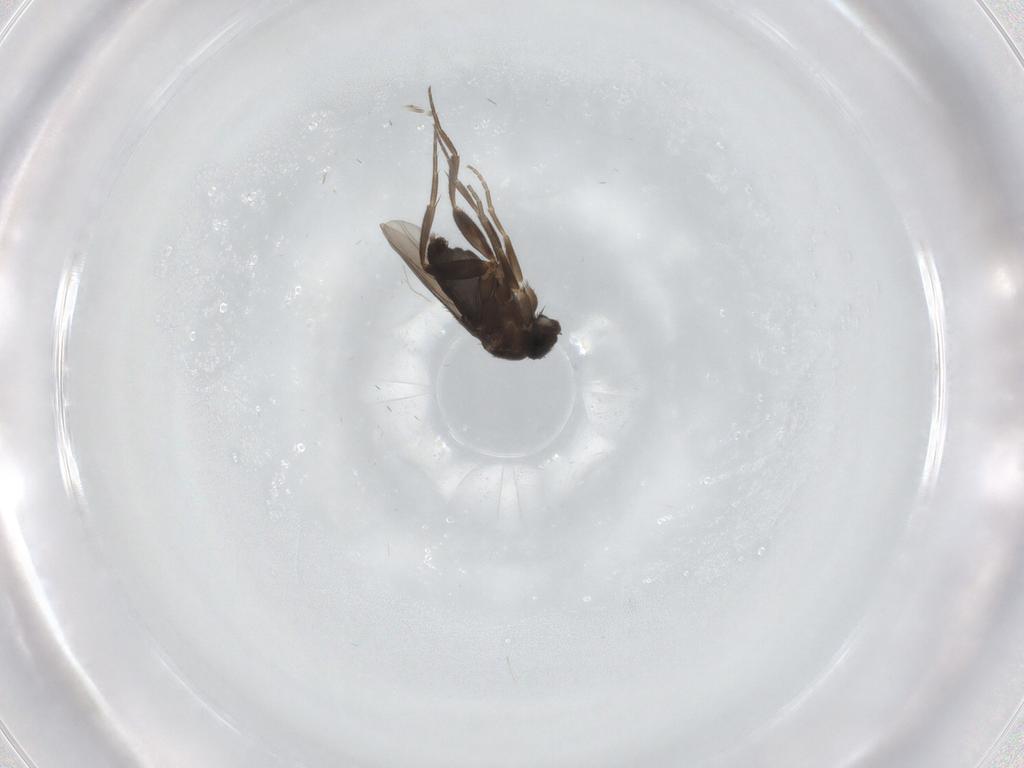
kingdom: Animalia
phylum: Arthropoda
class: Insecta
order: Diptera
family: Phoridae
